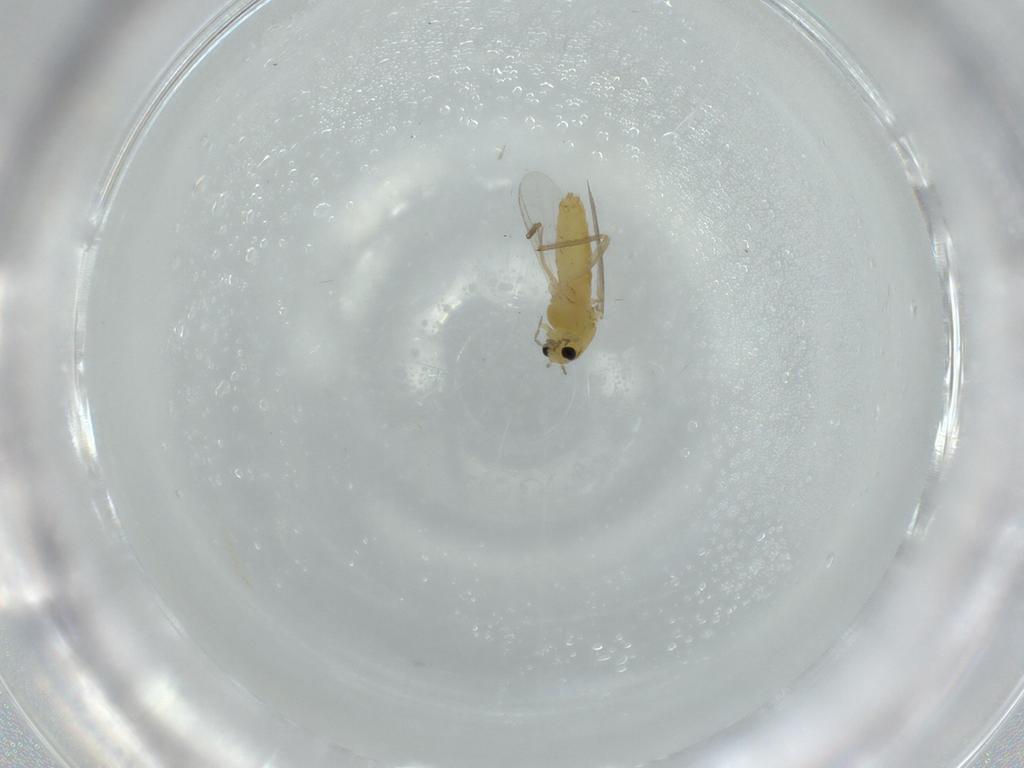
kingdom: Animalia
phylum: Arthropoda
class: Insecta
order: Diptera
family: Chironomidae
